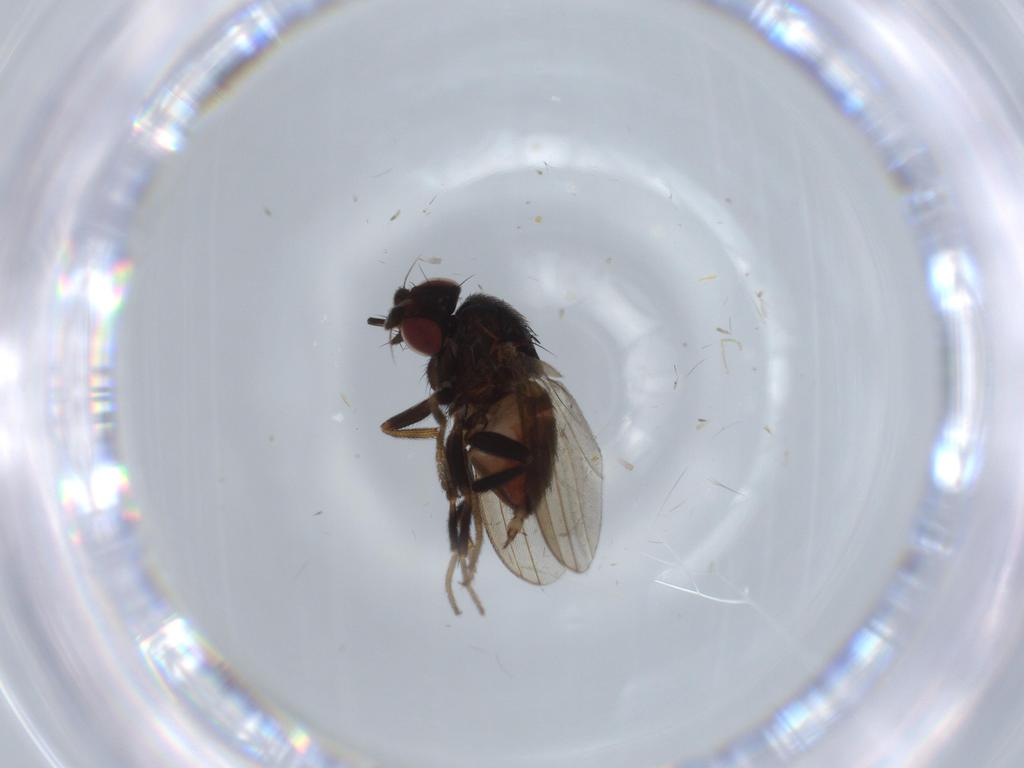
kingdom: Animalia
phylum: Arthropoda
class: Insecta
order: Diptera
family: Milichiidae
